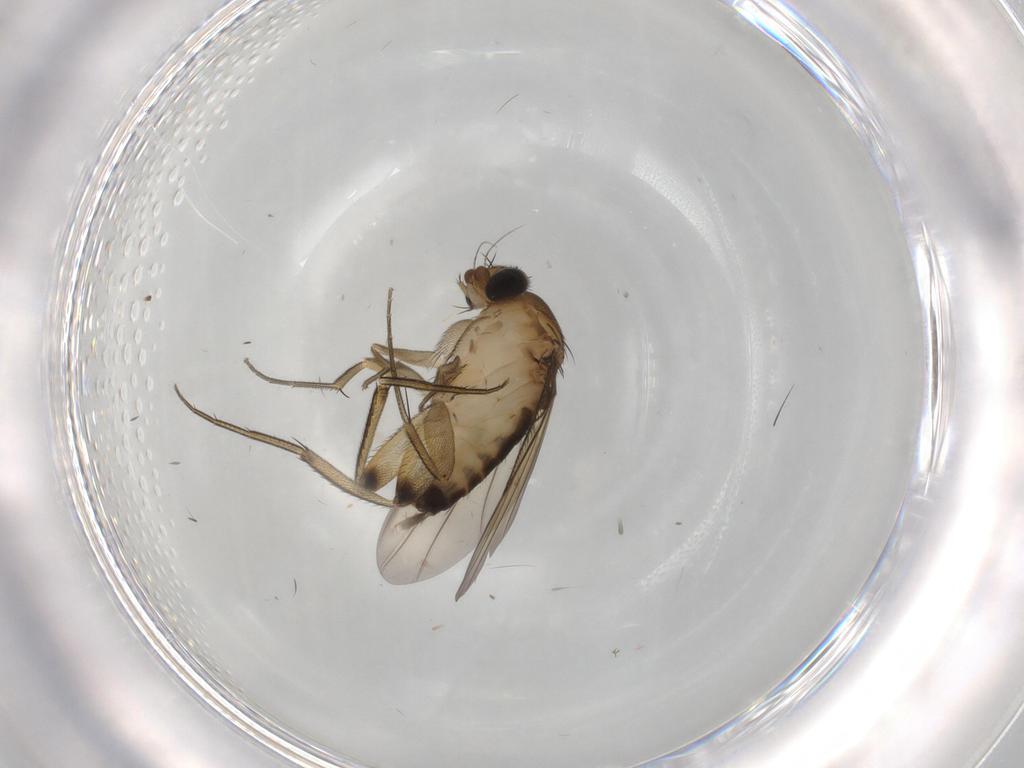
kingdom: Animalia
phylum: Arthropoda
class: Insecta
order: Diptera
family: Phoridae
